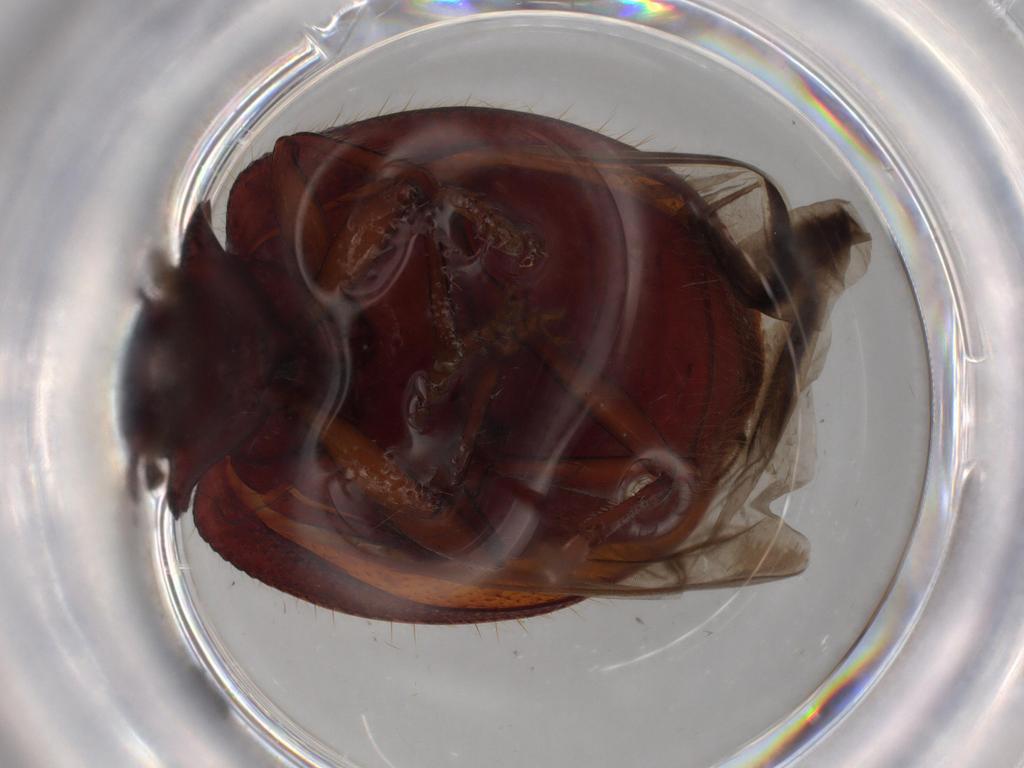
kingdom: Animalia
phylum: Arthropoda
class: Insecta
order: Coleoptera
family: Tenebrionidae
